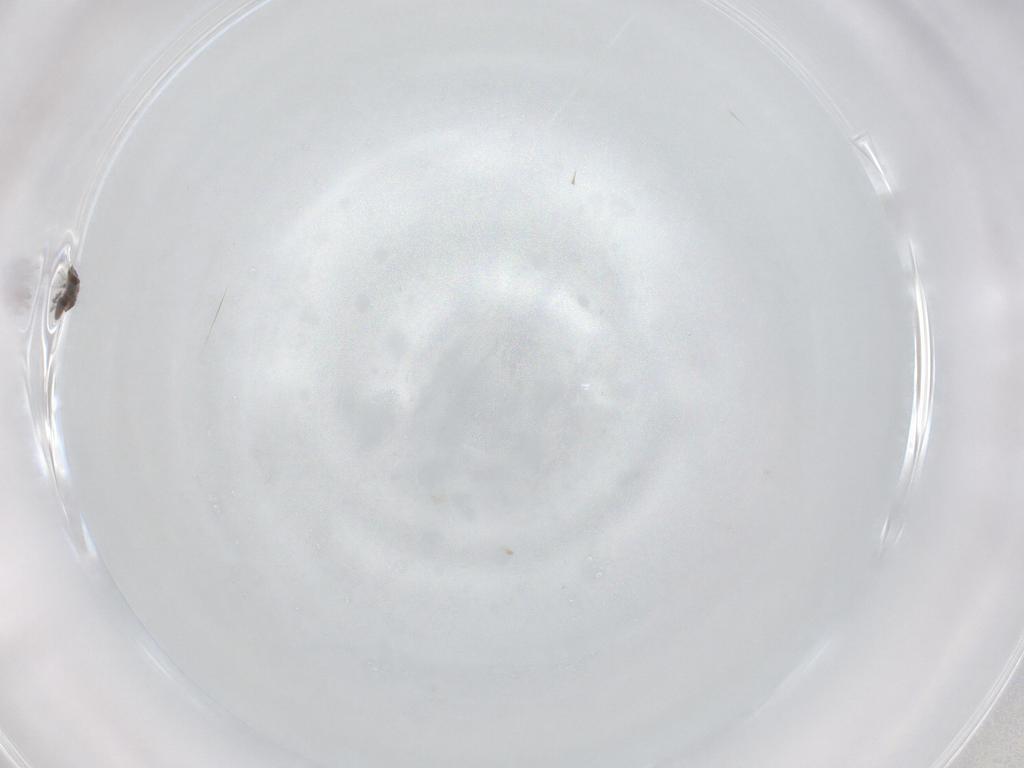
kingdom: Animalia
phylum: Arthropoda
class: Insecta
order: Hymenoptera
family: Trichogrammatidae
